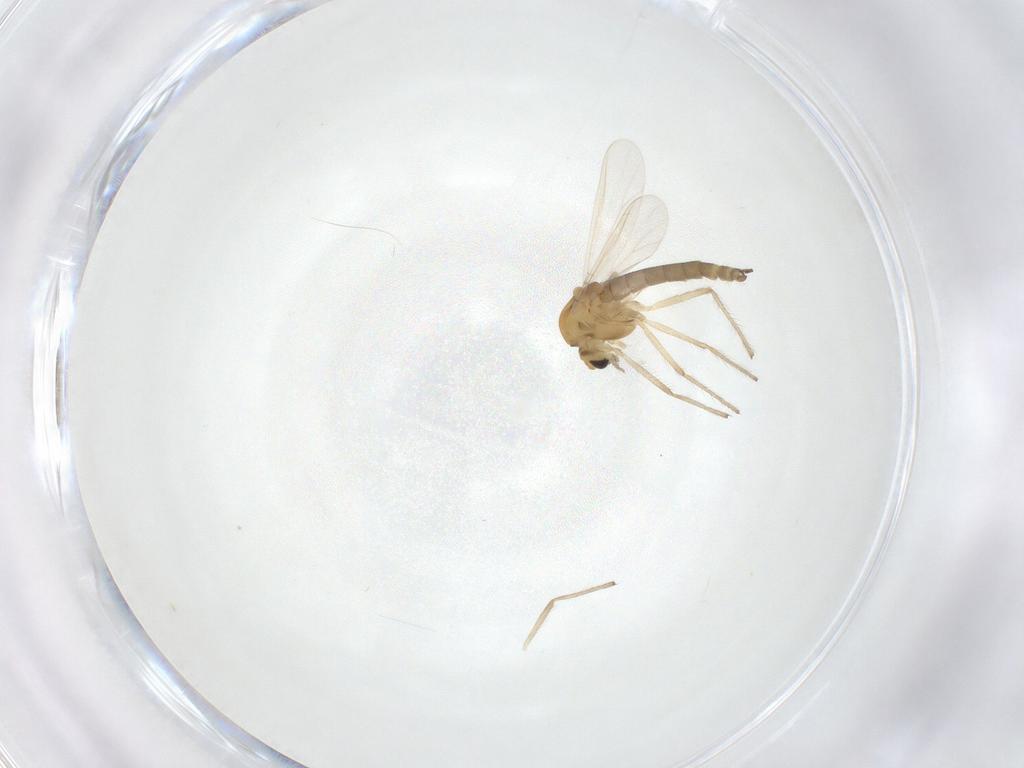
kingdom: Animalia
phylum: Arthropoda
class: Insecta
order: Diptera
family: Chironomidae
